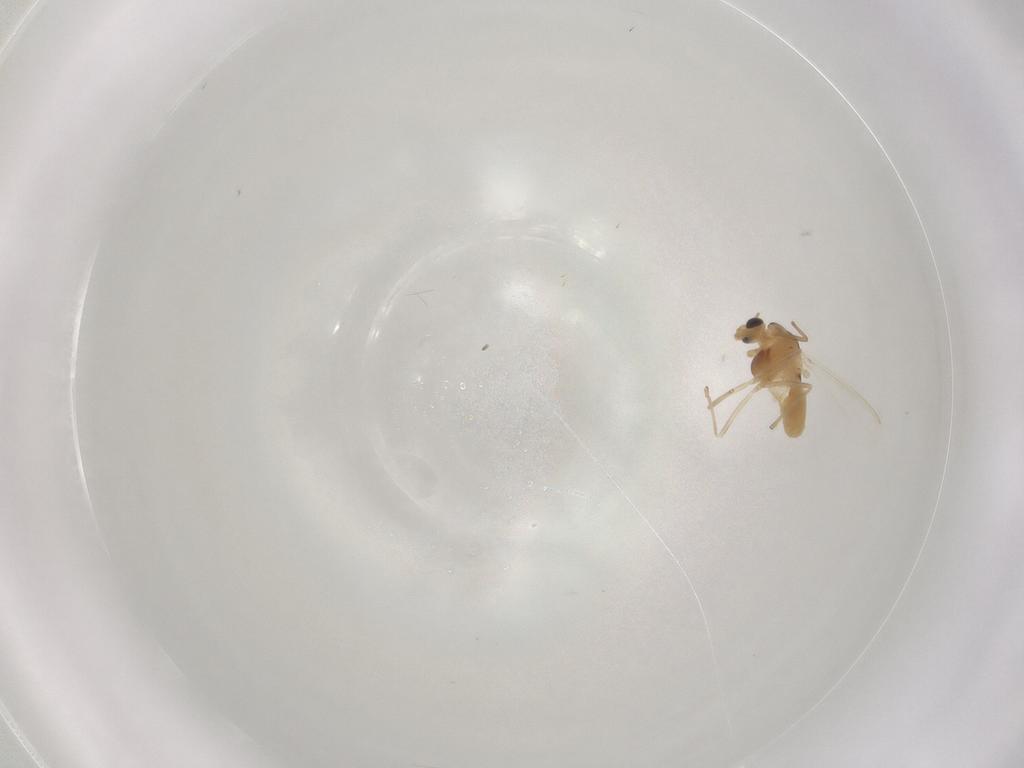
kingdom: Animalia
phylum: Arthropoda
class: Insecta
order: Diptera
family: Chironomidae
